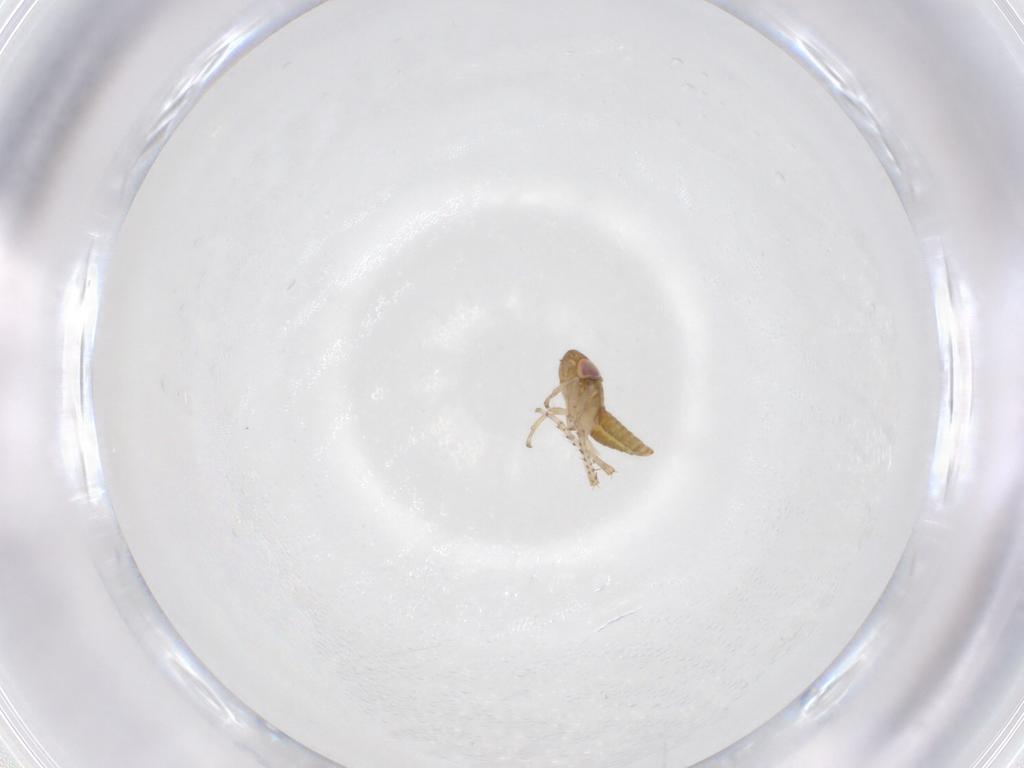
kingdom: Animalia
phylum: Arthropoda
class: Insecta
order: Hemiptera
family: Cicadellidae
